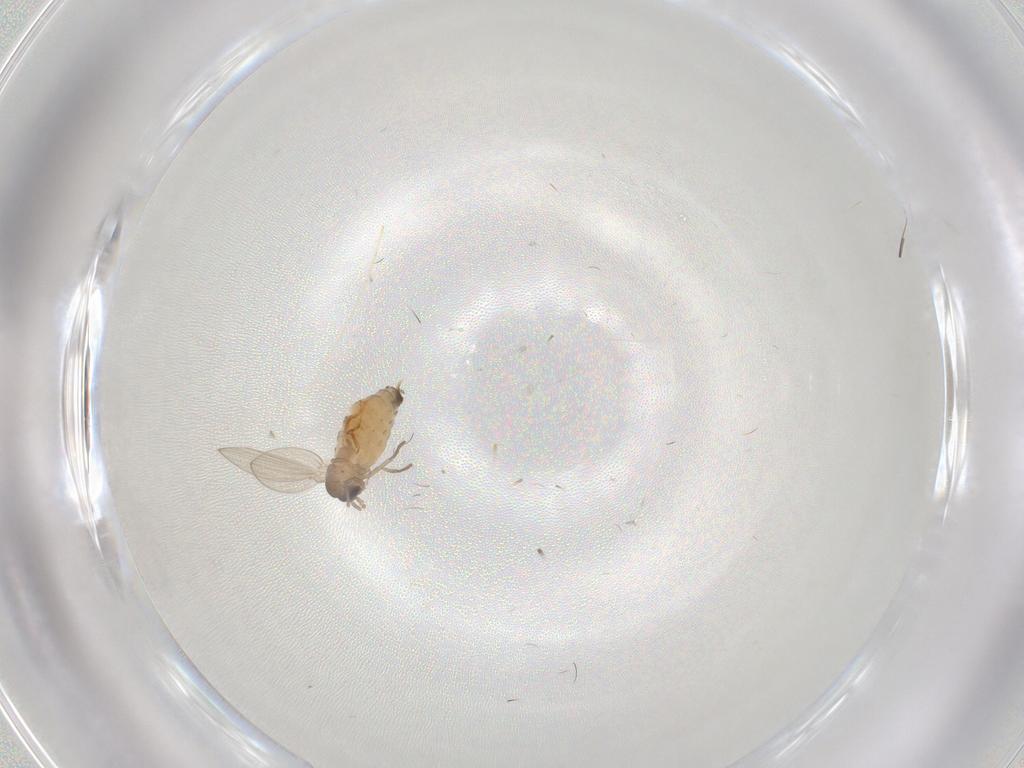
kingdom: Animalia
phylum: Arthropoda
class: Insecta
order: Diptera
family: Psychodidae
